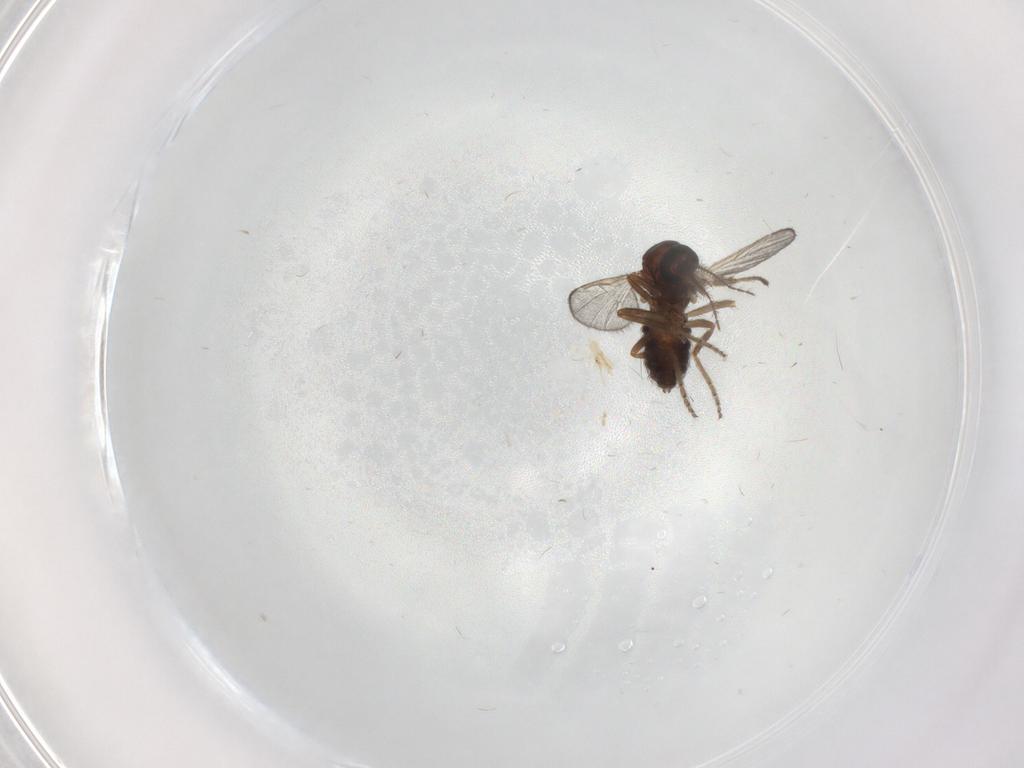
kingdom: Animalia
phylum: Arthropoda
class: Insecta
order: Diptera
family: Ceratopogonidae
